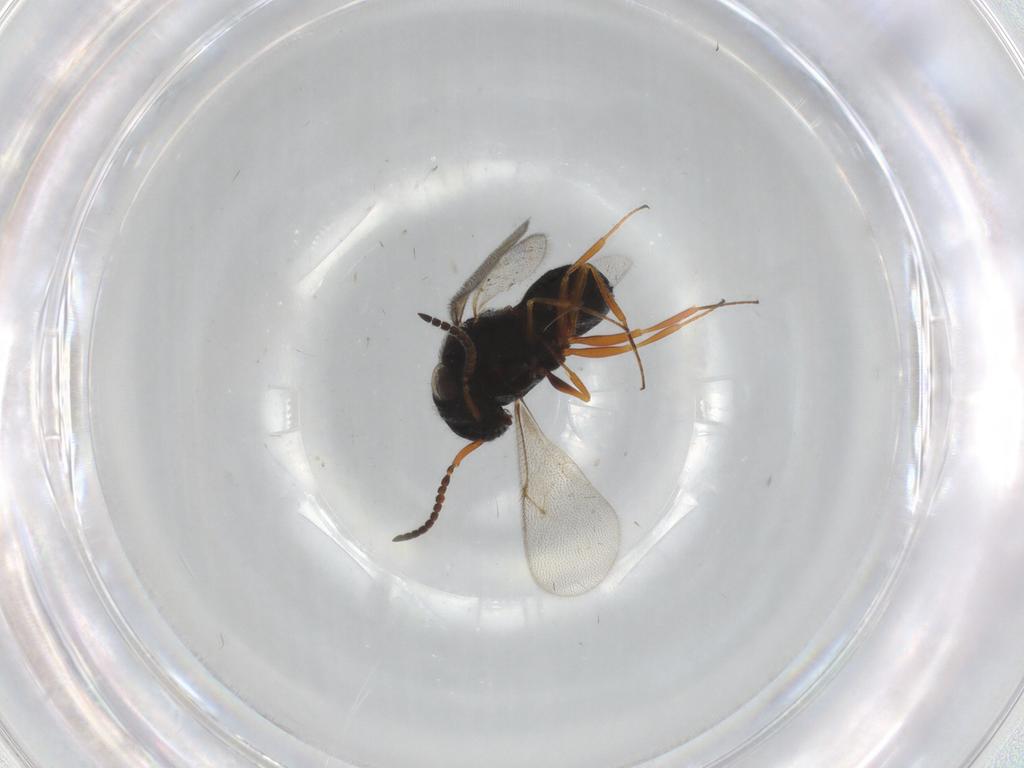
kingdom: Animalia
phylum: Arthropoda
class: Insecta
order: Hymenoptera
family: Scelionidae
